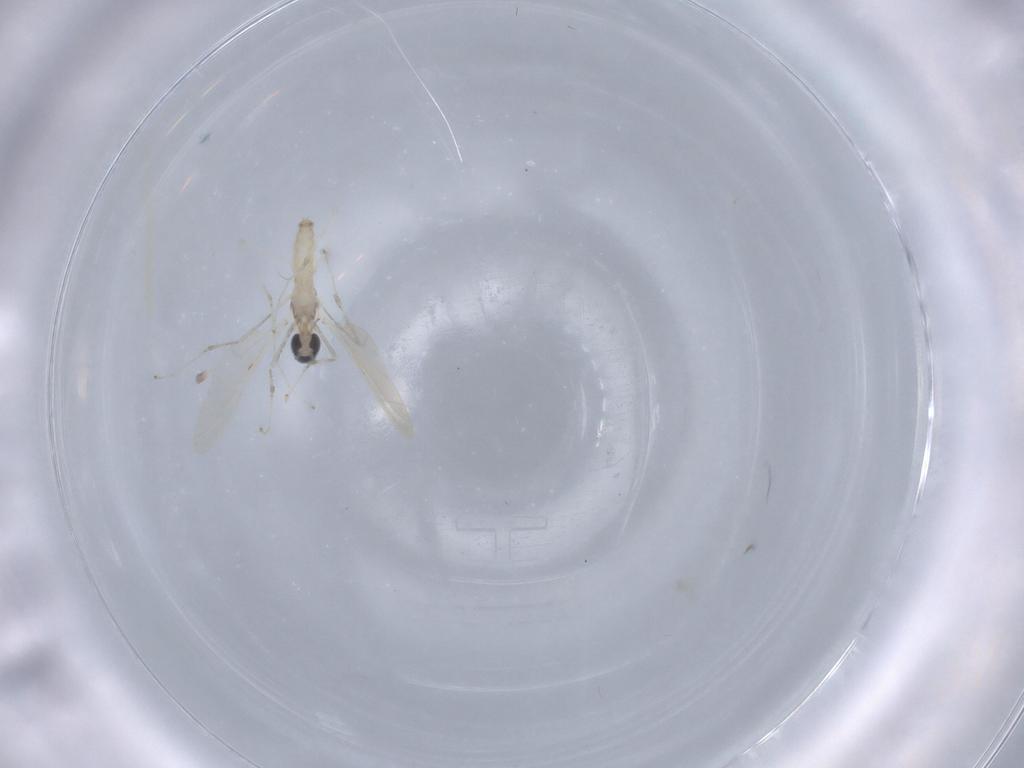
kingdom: Animalia
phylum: Arthropoda
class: Insecta
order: Diptera
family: Cecidomyiidae
